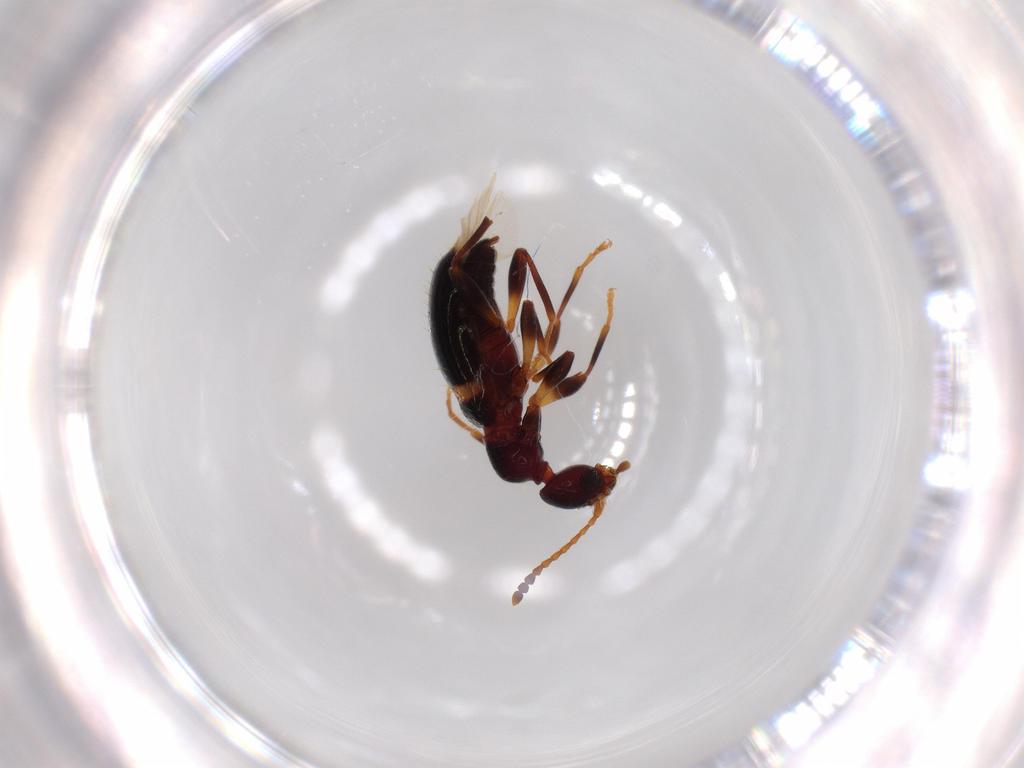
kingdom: Animalia
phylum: Arthropoda
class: Insecta
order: Coleoptera
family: Anthicidae
